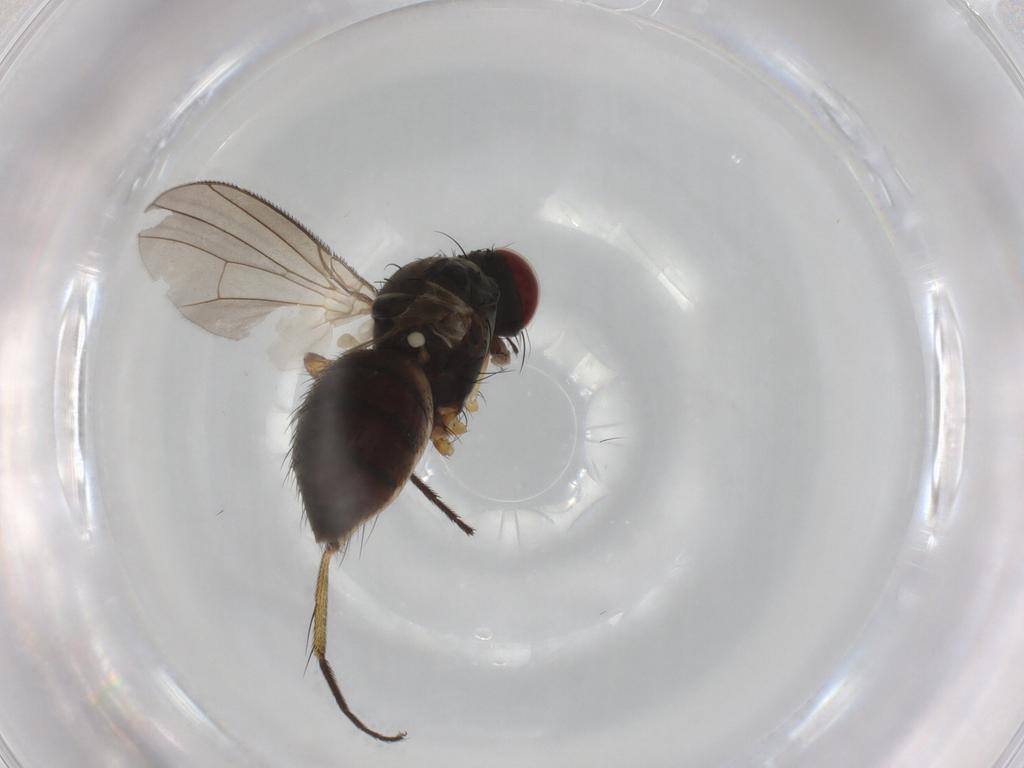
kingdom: Animalia
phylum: Arthropoda
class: Insecta
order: Diptera
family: Muscidae
